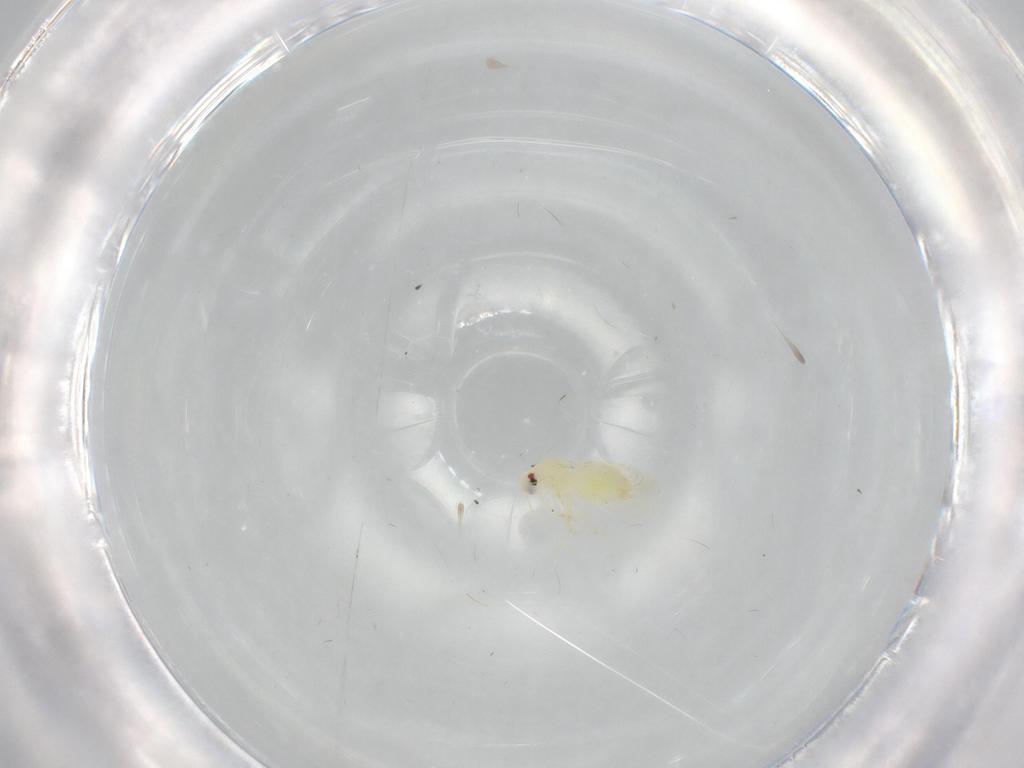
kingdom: Animalia
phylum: Arthropoda
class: Insecta
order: Hemiptera
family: Aleyrodidae
